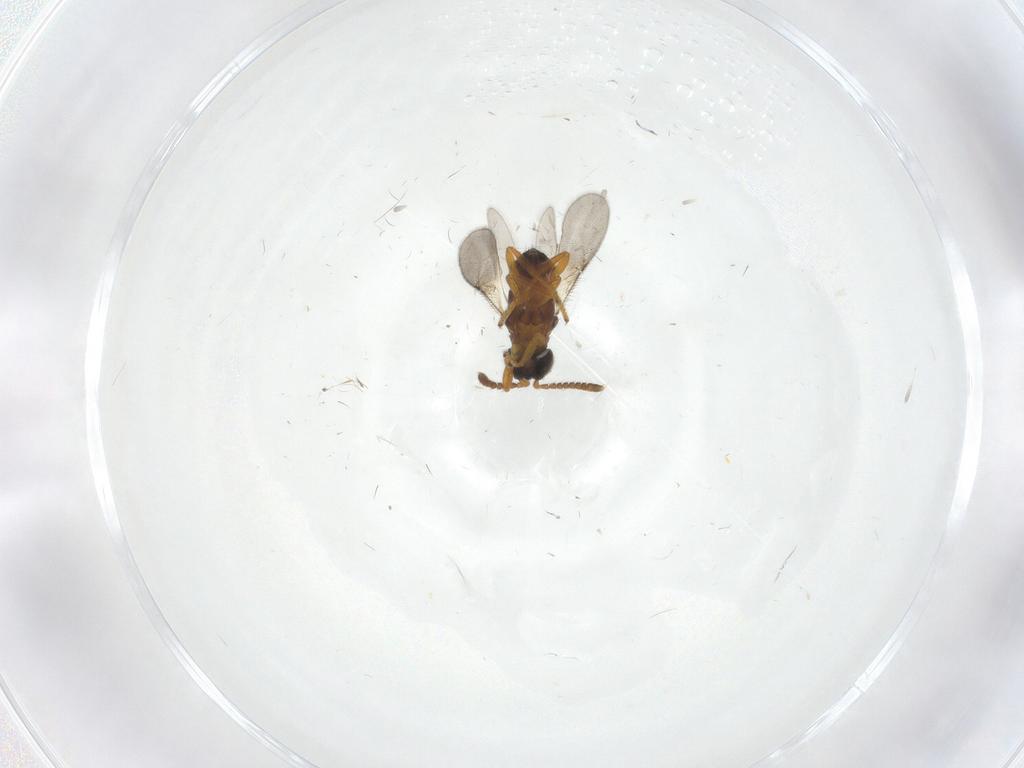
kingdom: Animalia
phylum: Arthropoda
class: Insecta
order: Hymenoptera
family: Encyrtidae
